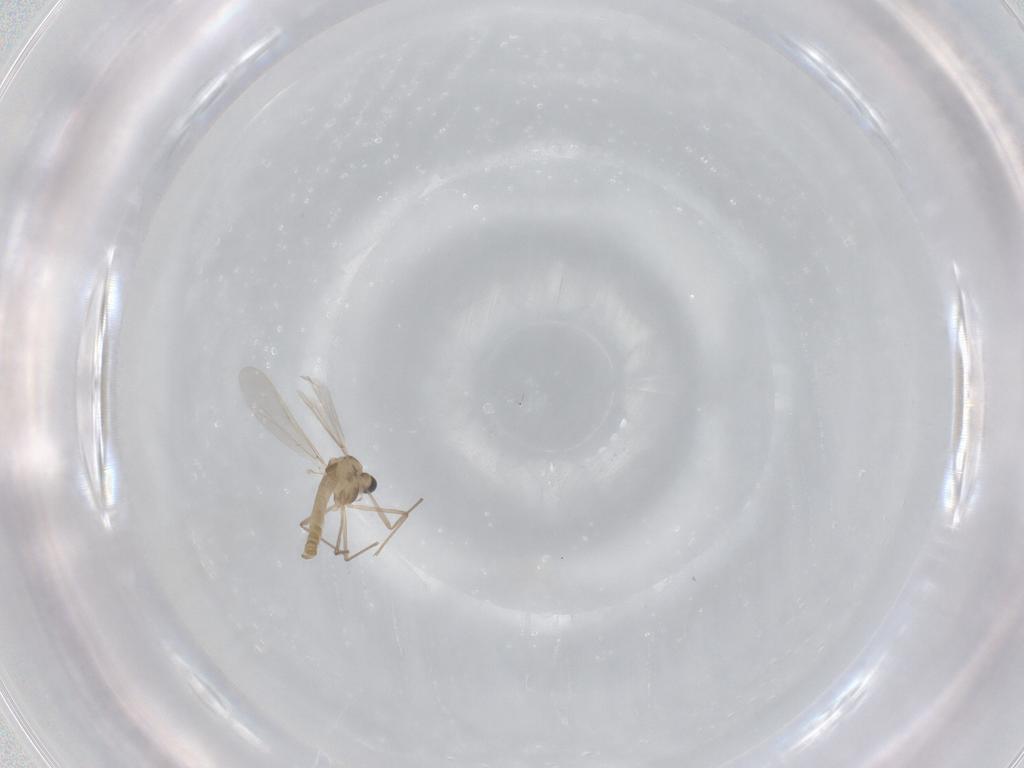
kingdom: Animalia
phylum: Arthropoda
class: Insecta
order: Diptera
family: Chironomidae
